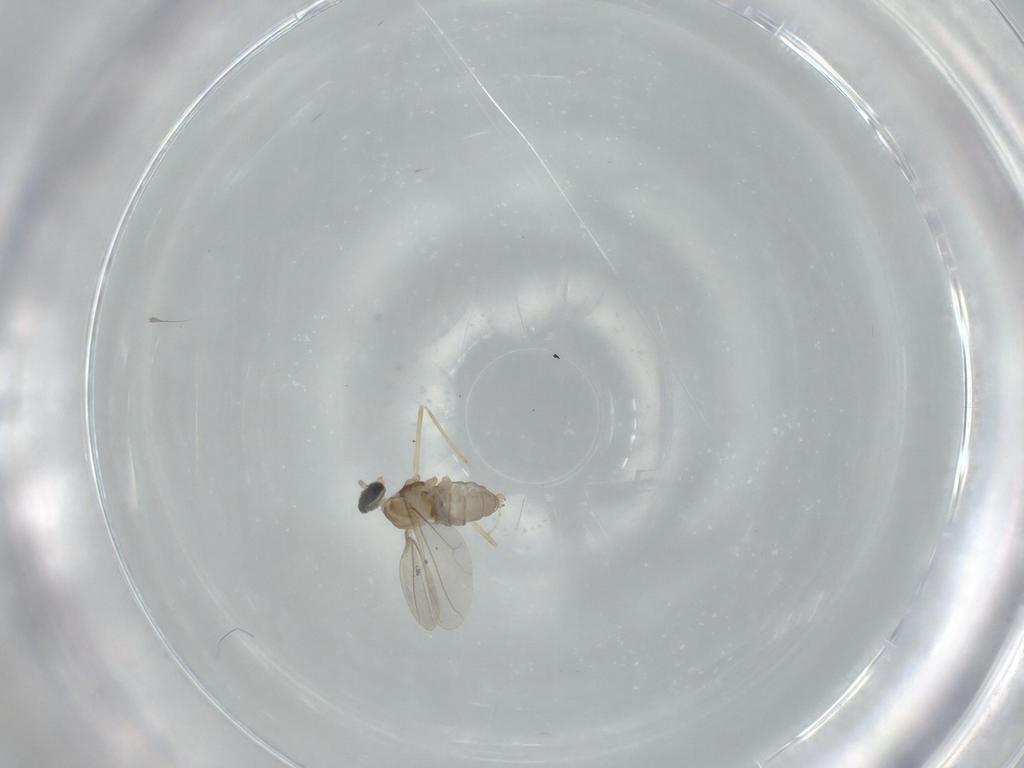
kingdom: Animalia
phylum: Arthropoda
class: Insecta
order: Diptera
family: Cecidomyiidae
